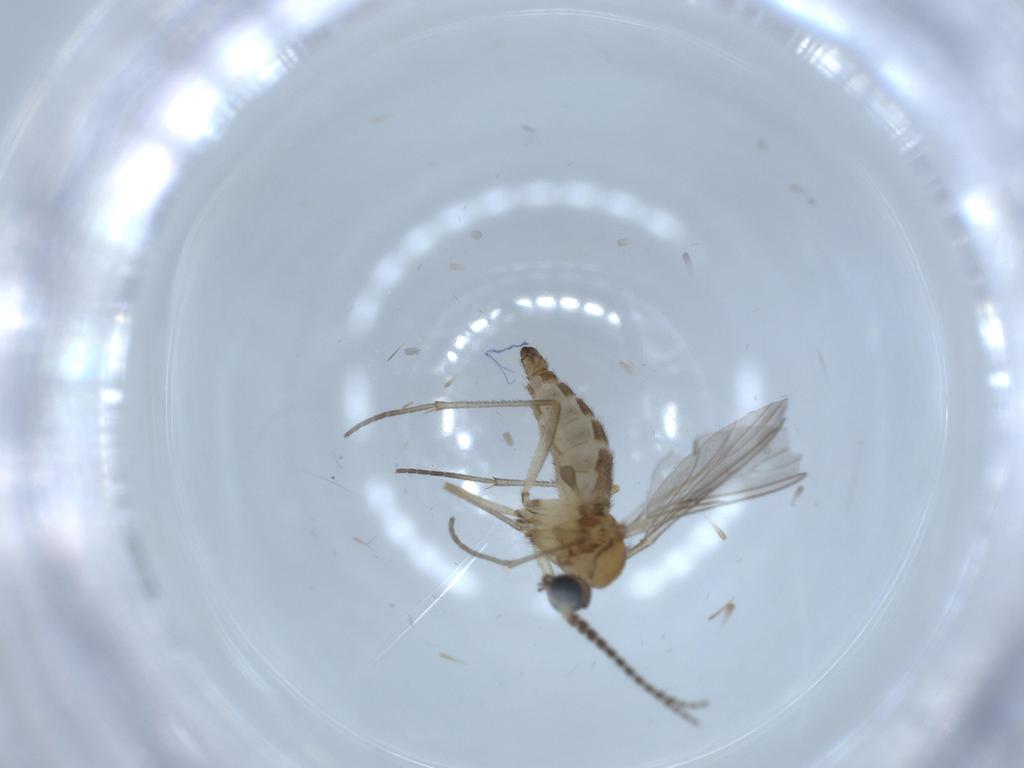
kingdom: Animalia
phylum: Arthropoda
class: Insecta
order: Diptera
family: Sciaridae
